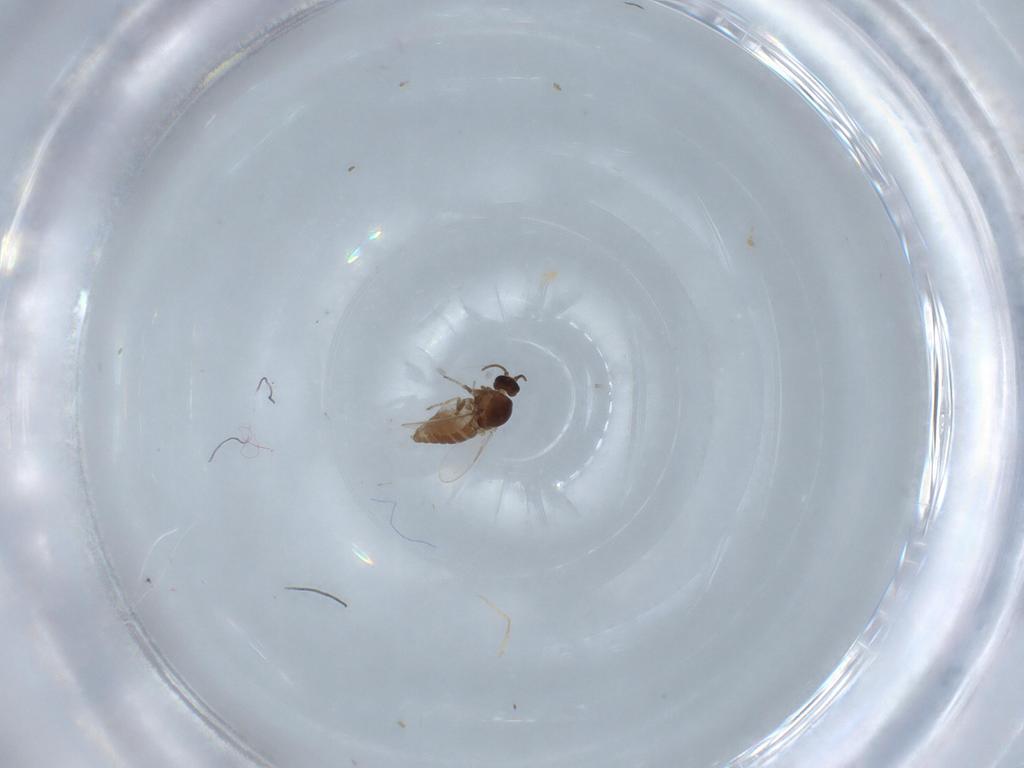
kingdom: Animalia
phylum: Arthropoda
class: Insecta
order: Diptera
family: Ceratopogonidae
